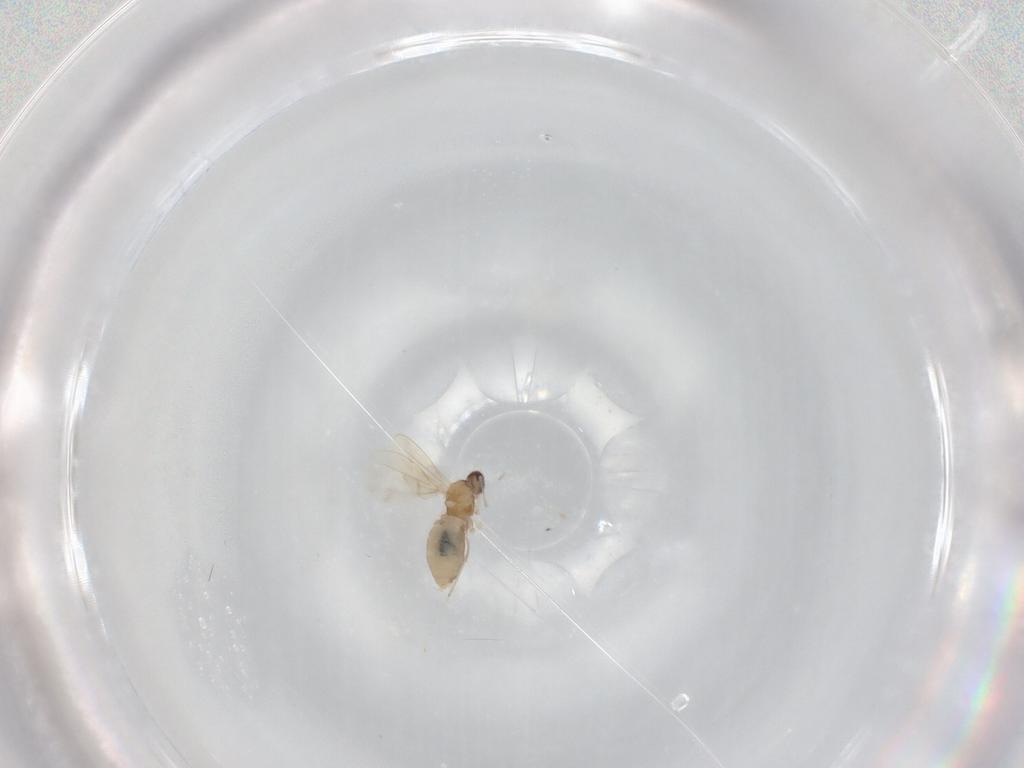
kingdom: Animalia
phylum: Arthropoda
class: Insecta
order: Diptera
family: Cecidomyiidae
